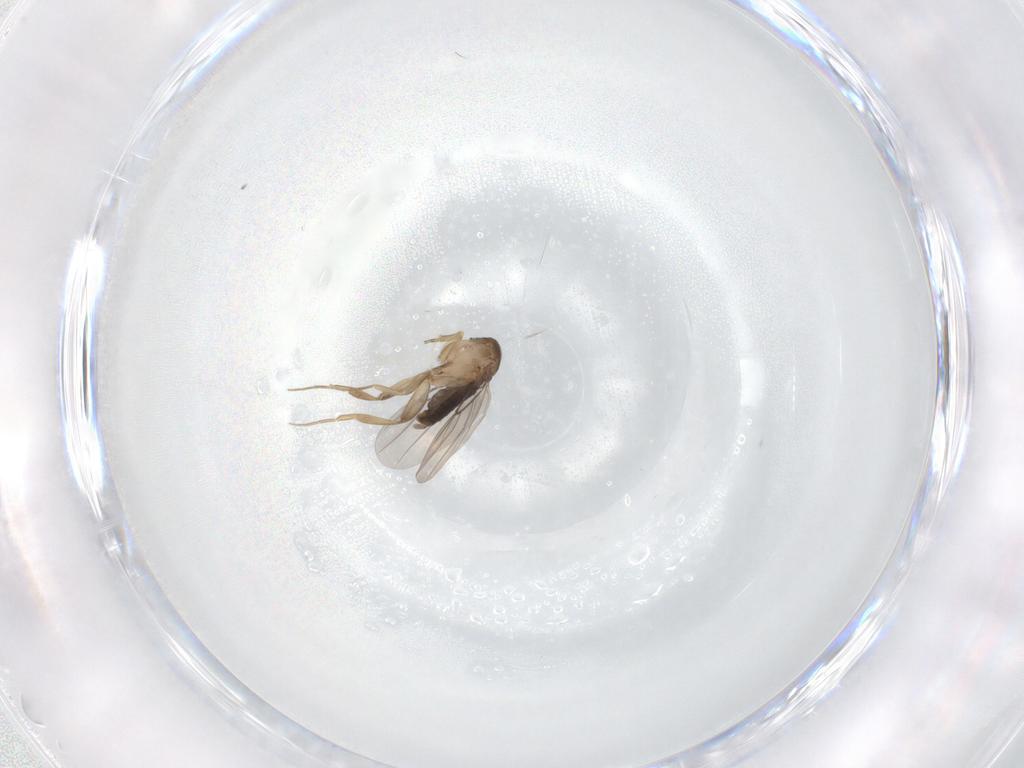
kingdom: Animalia
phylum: Arthropoda
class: Insecta
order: Diptera
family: Phoridae
